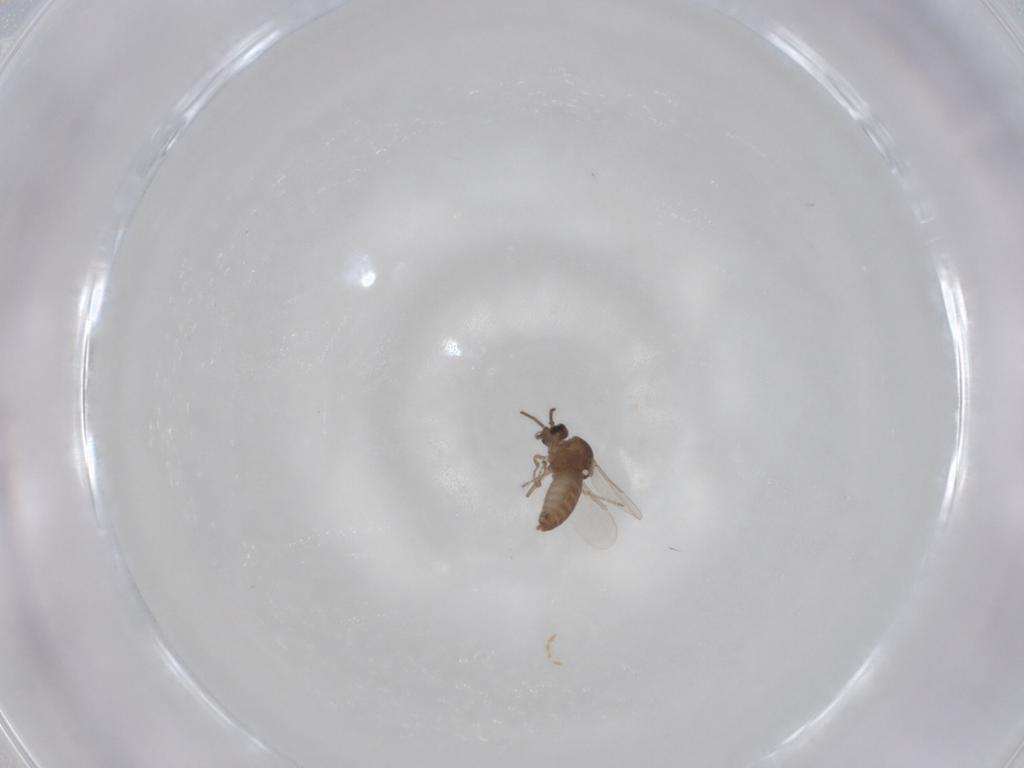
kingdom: Animalia
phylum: Arthropoda
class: Insecta
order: Diptera
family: Ceratopogonidae
